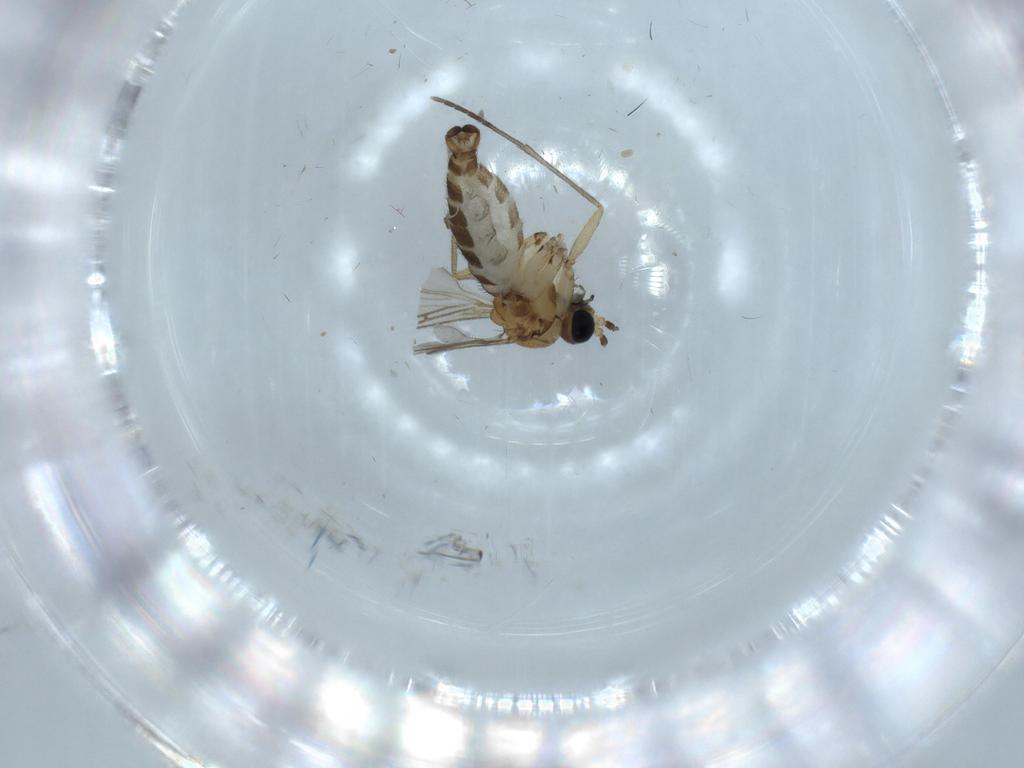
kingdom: Animalia
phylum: Arthropoda
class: Insecta
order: Diptera
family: Sciaridae
